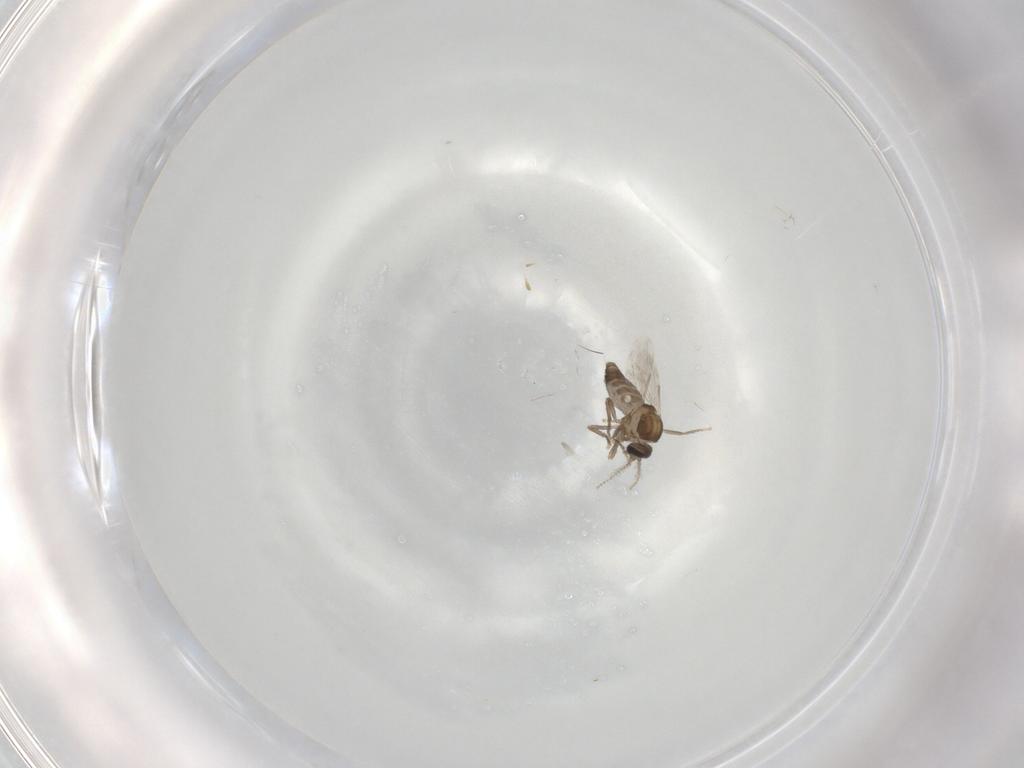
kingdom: Animalia
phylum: Arthropoda
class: Insecta
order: Diptera
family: Ceratopogonidae
